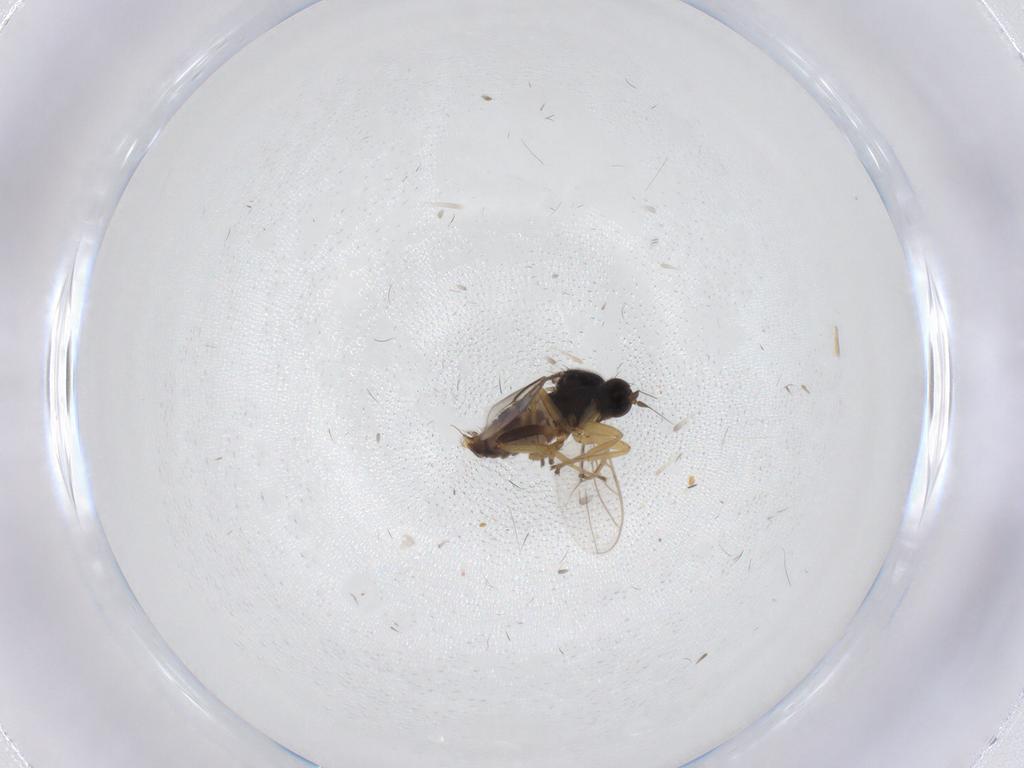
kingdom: Animalia
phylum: Arthropoda
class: Insecta
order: Diptera
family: Hybotidae
